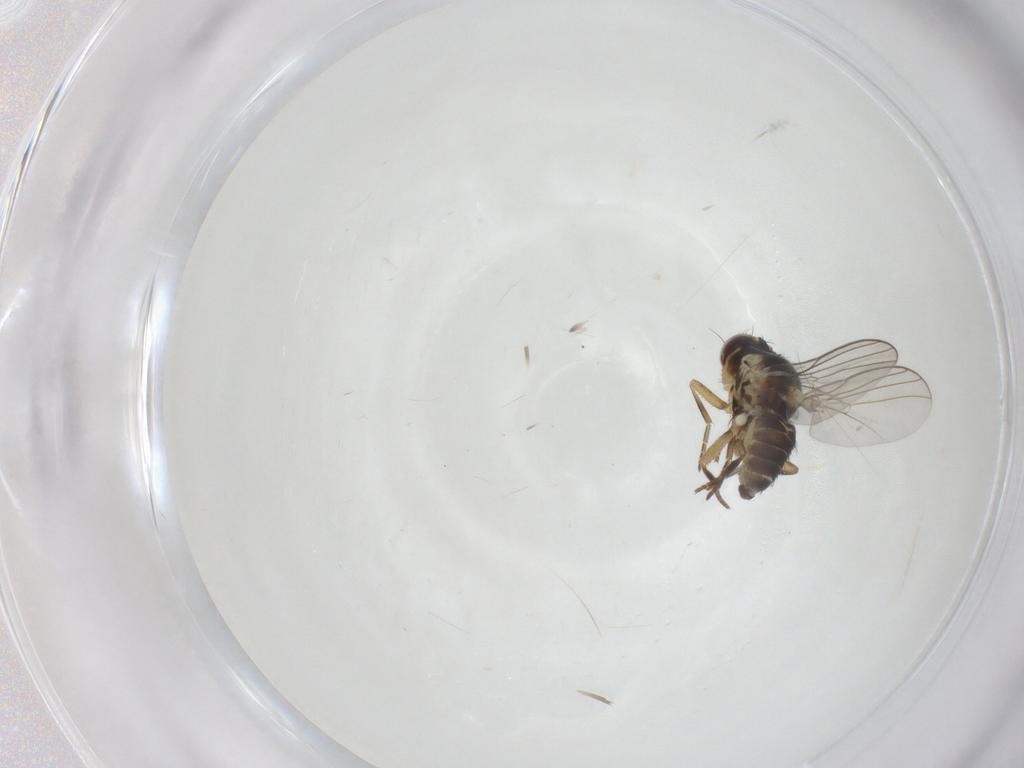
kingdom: Animalia
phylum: Arthropoda
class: Insecta
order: Diptera
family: Agromyzidae
